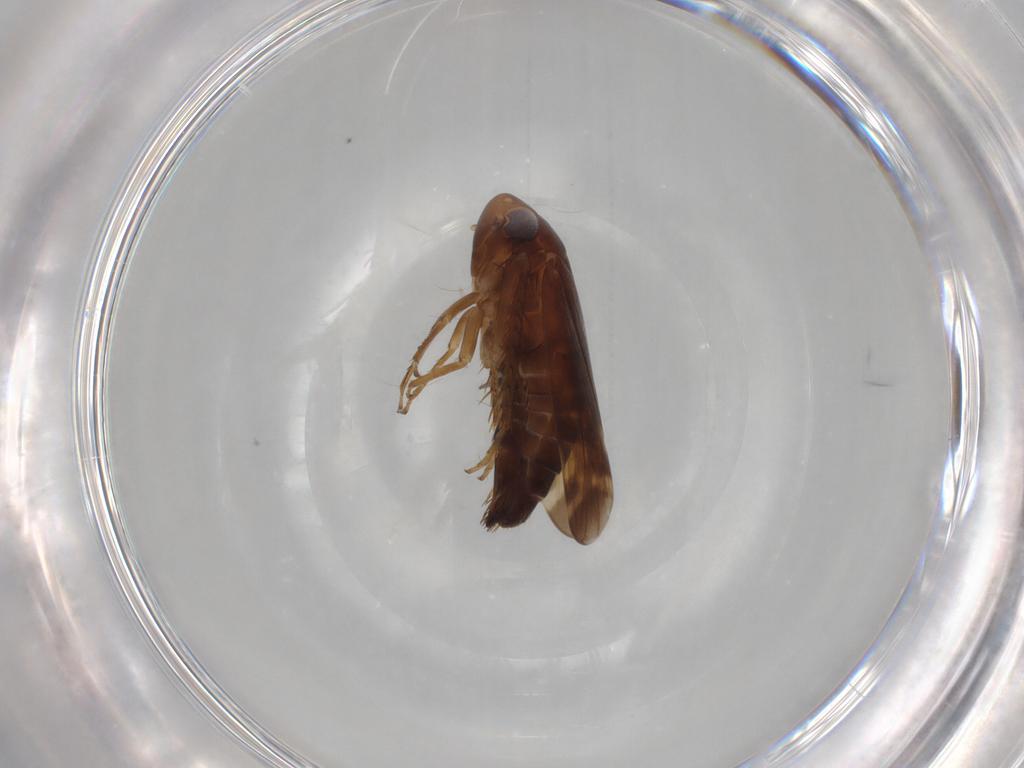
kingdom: Animalia
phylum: Arthropoda
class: Insecta
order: Hemiptera
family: Cicadellidae
